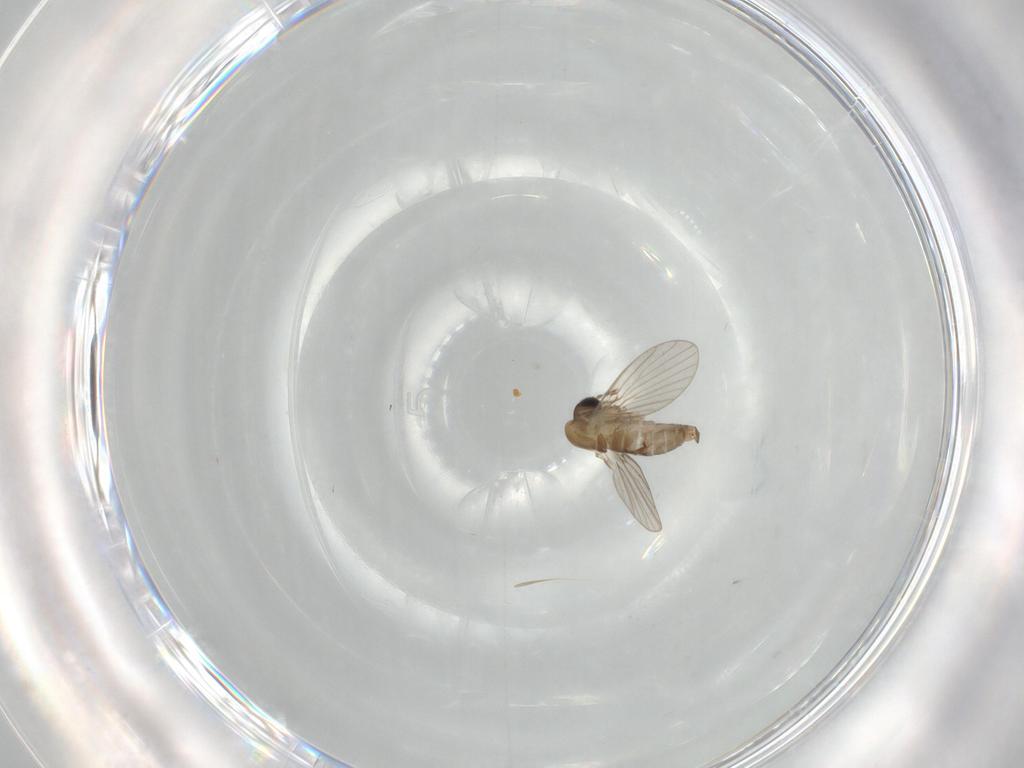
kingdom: Animalia
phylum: Arthropoda
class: Insecta
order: Diptera
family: Psychodidae
